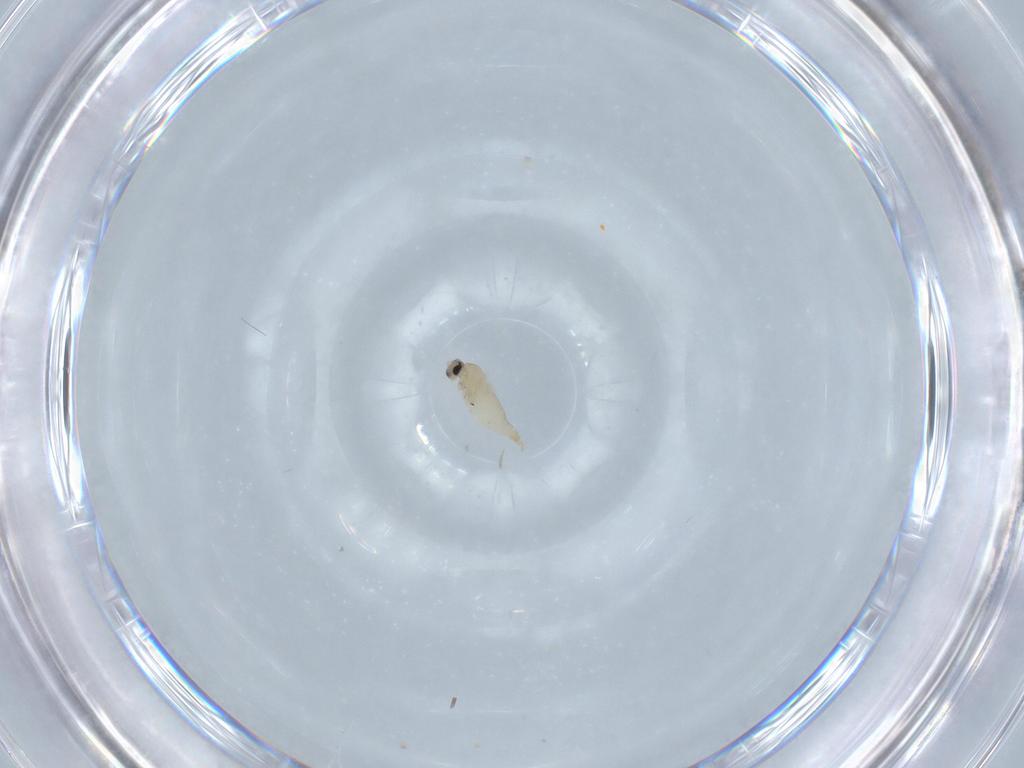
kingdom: Animalia
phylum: Arthropoda
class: Insecta
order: Diptera
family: Cecidomyiidae
